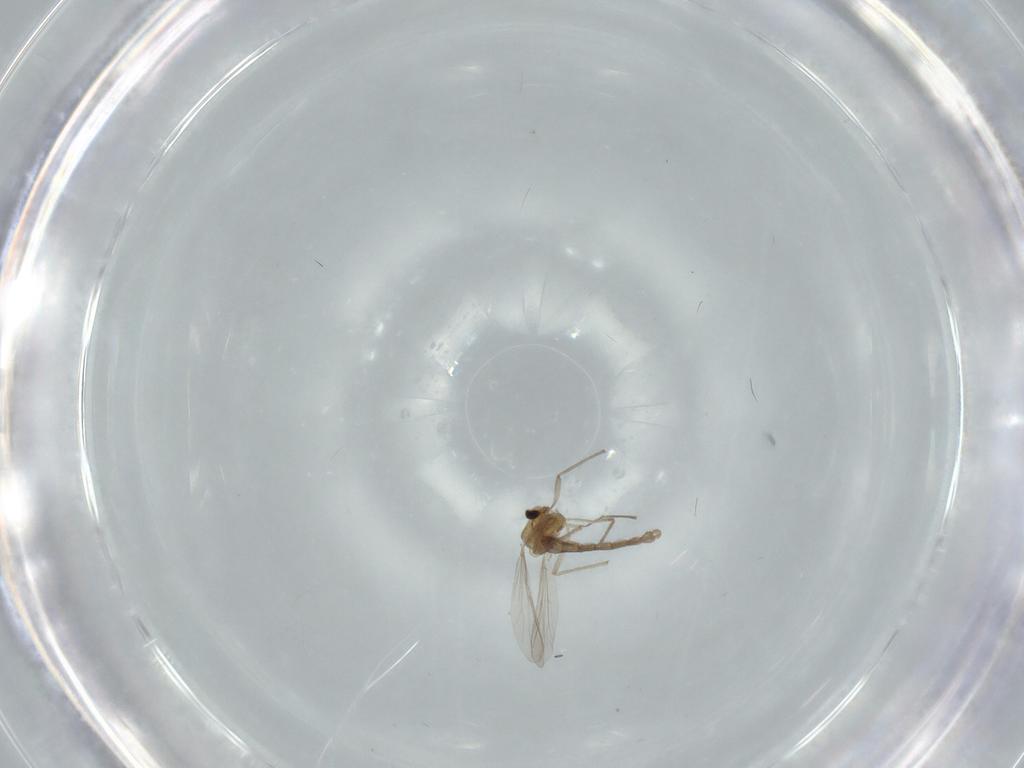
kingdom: Animalia
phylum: Arthropoda
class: Insecta
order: Diptera
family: Chironomidae
